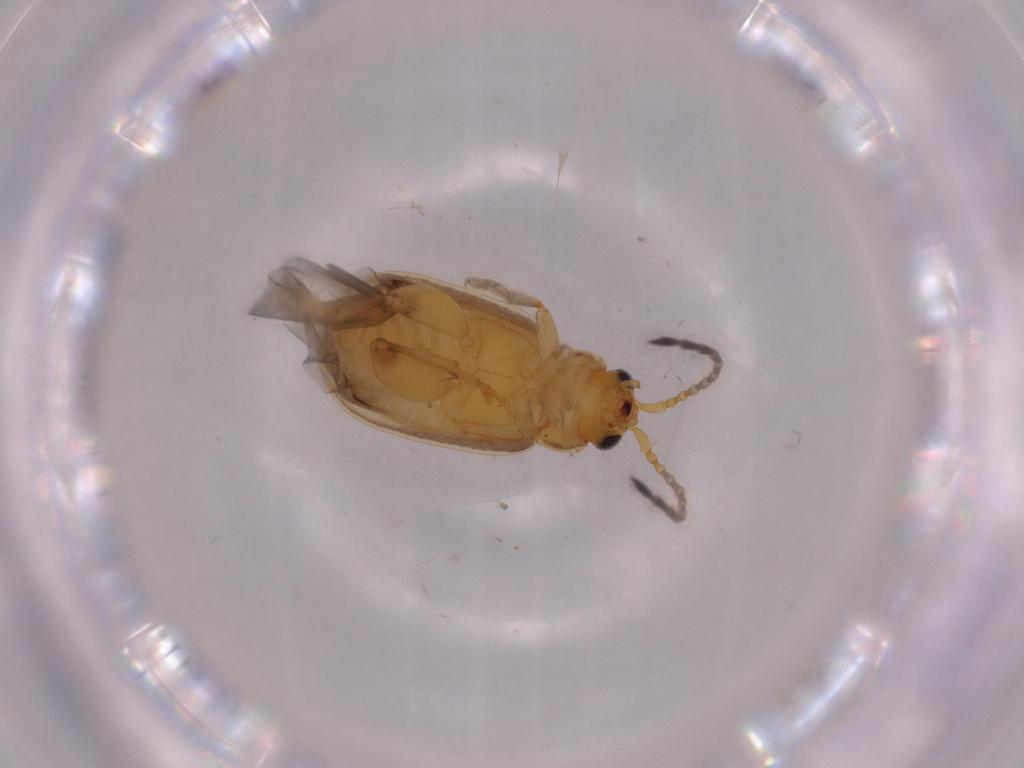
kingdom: Animalia
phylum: Arthropoda
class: Insecta
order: Coleoptera
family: Chrysomelidae
